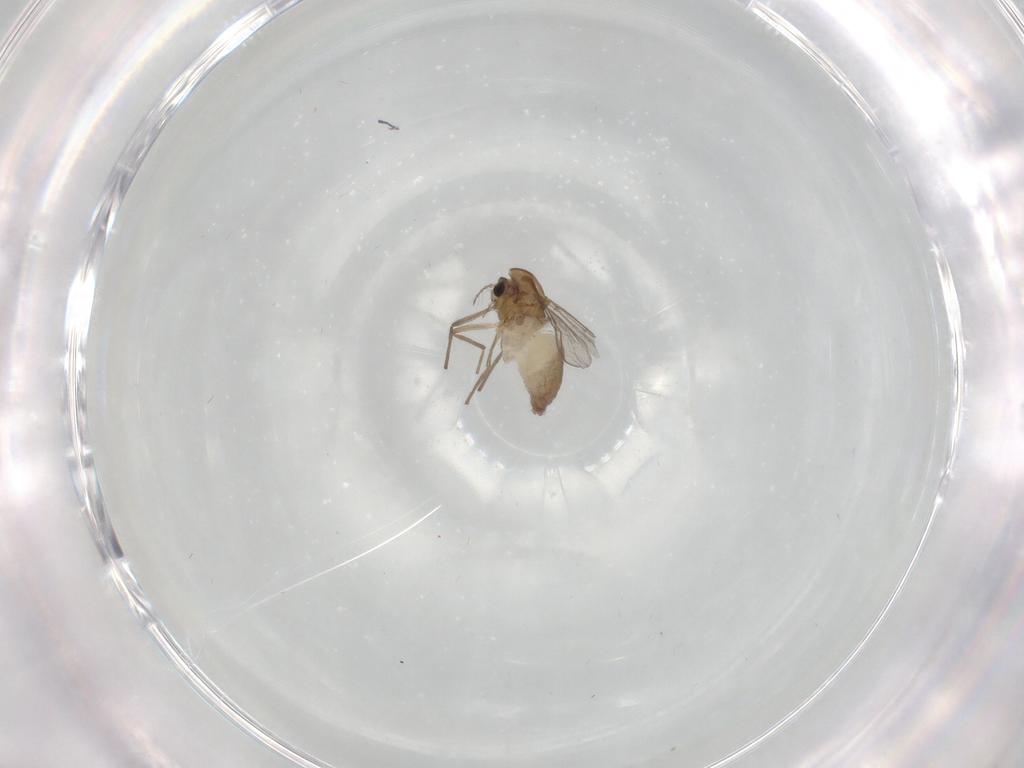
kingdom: Animalia
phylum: Arthropoda
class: Insecta
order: Diptera
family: Chironomidae
